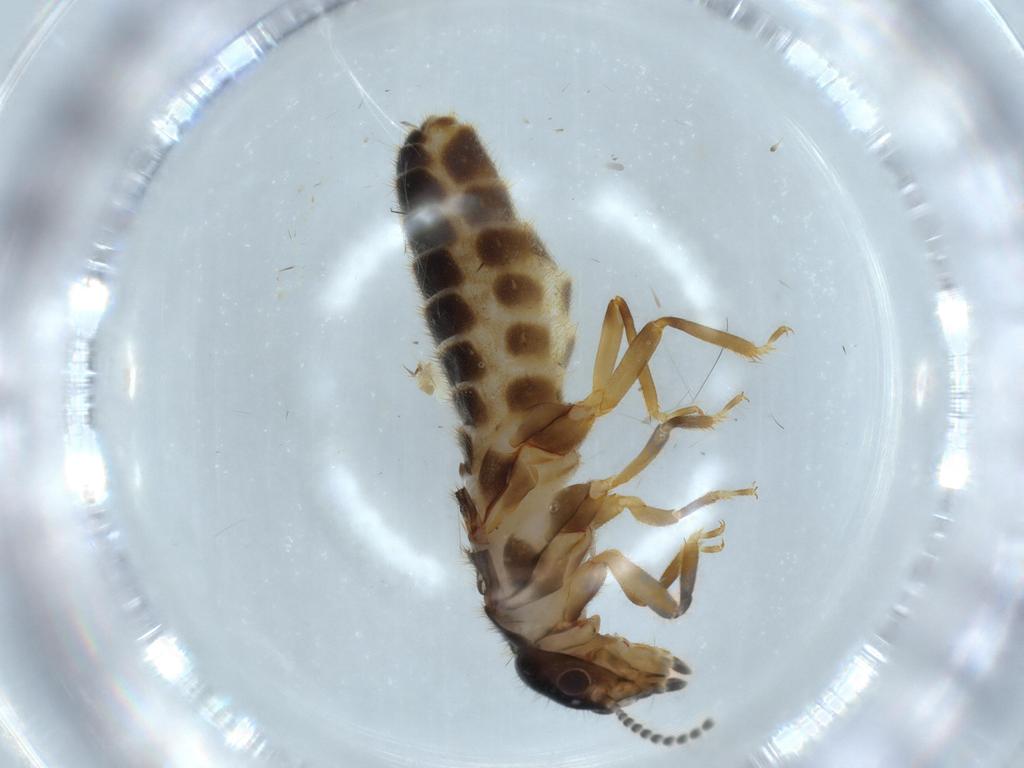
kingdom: Animalia
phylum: Arthropoda
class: Insecta
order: Blattodea
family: Termitidae
